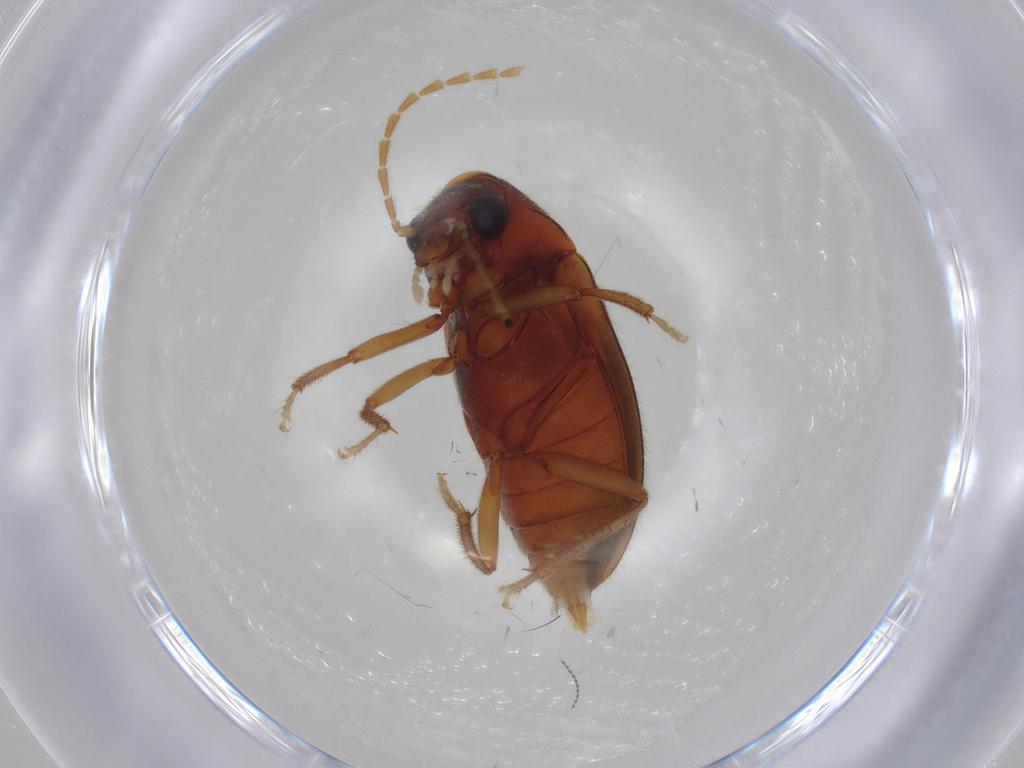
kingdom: Animalia
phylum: Arthropoda
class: Insecta
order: Coleoptera
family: Ptilodactylidae
